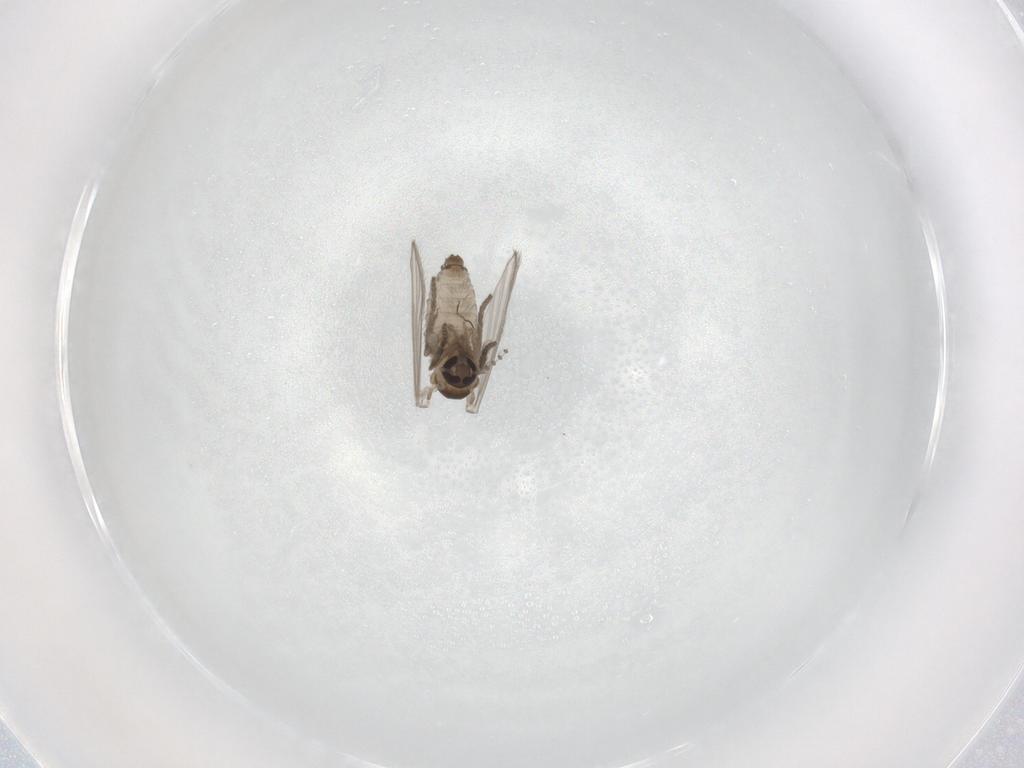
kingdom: Animalia
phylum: Arthropoda
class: Insecta
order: Diptera
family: Psychodidae
